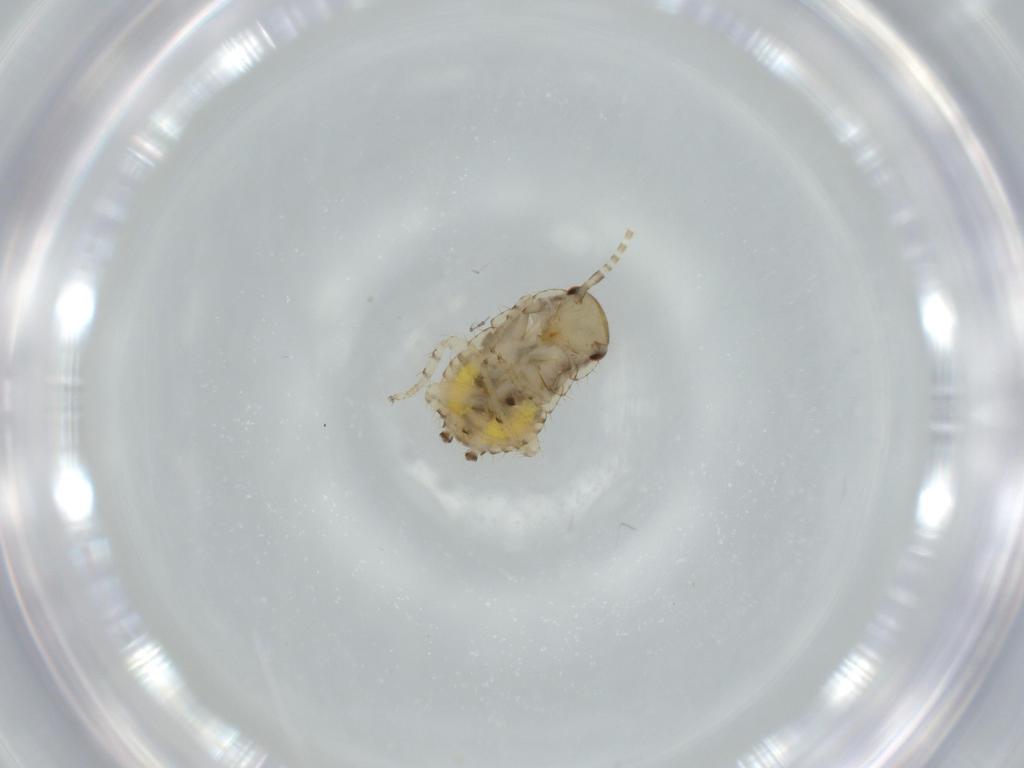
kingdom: Animalia
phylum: Arthropoda
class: Insecta
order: Blattodea
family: Ectobiidae
